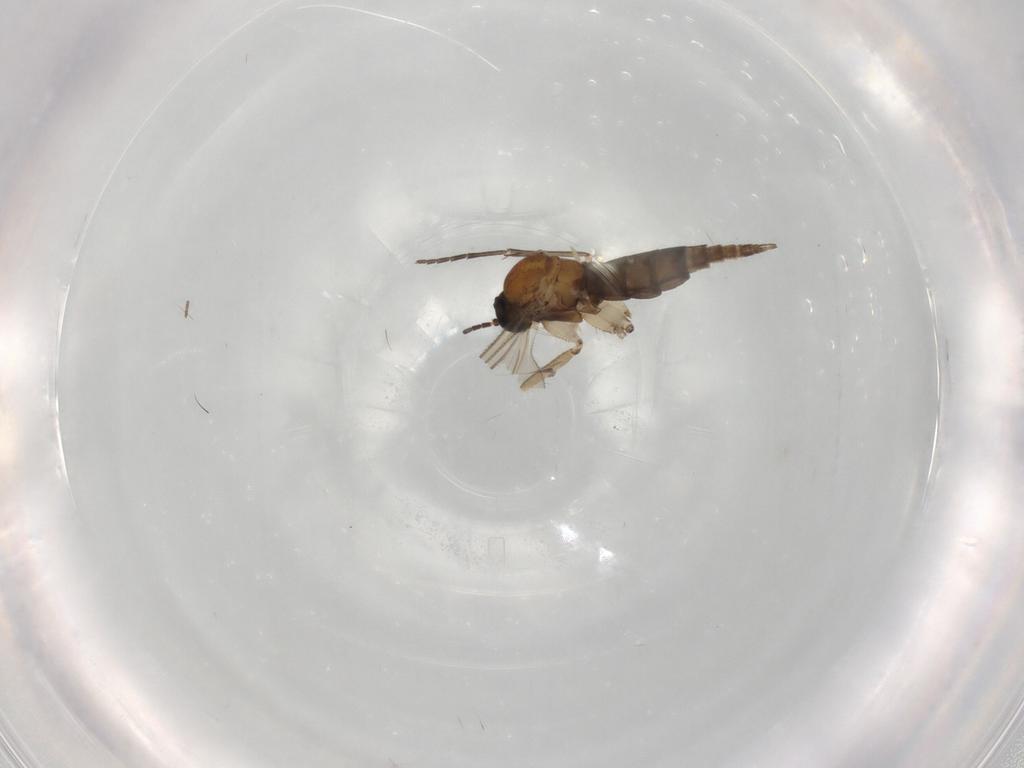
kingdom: Animalia
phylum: Arthropoda
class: Insecta
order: Diptera
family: Sciaridae
